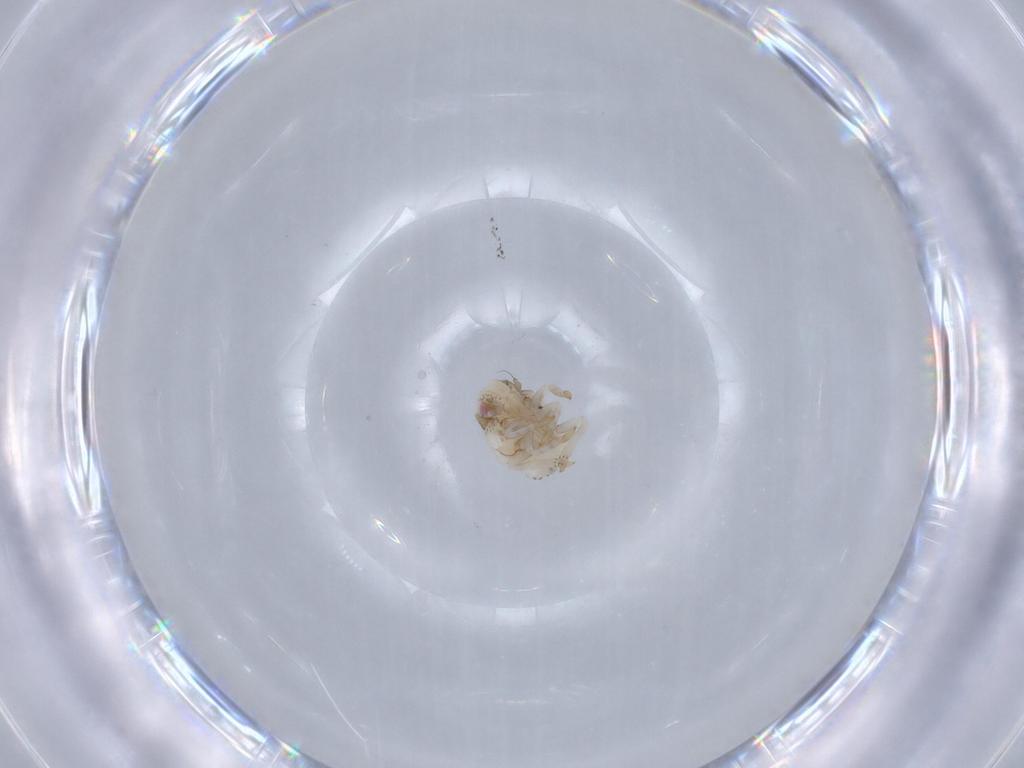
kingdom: Animalia
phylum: Arthropoda
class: Insecta
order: Hemiptera
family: Acanaloniidae
